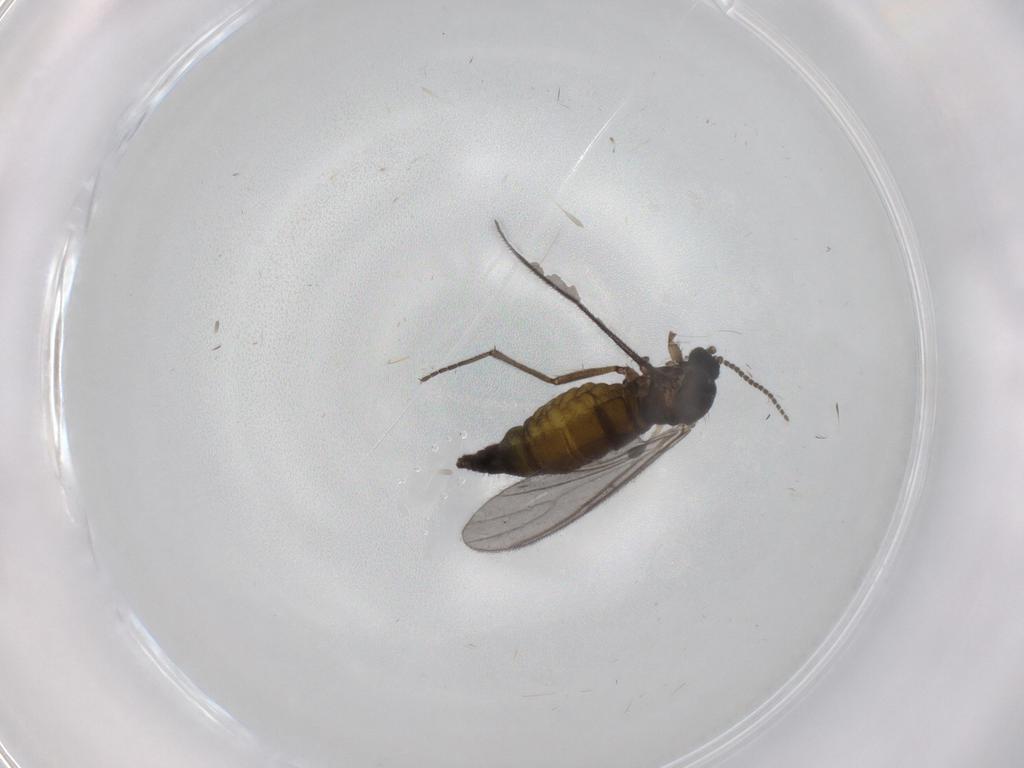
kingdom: Animalia
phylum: Arthropoda
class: Insecta
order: Diptera
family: Sciaridae
